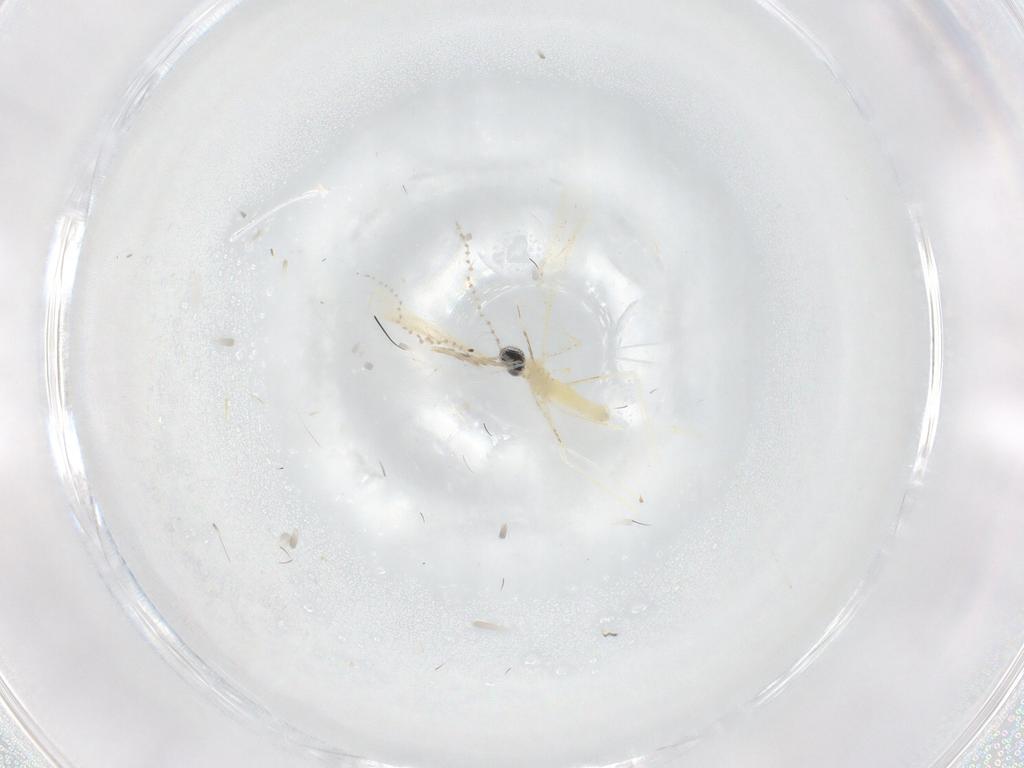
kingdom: Animalia
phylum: Arthropoda
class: Insecta
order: Diptera
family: Cecidomyiidae
